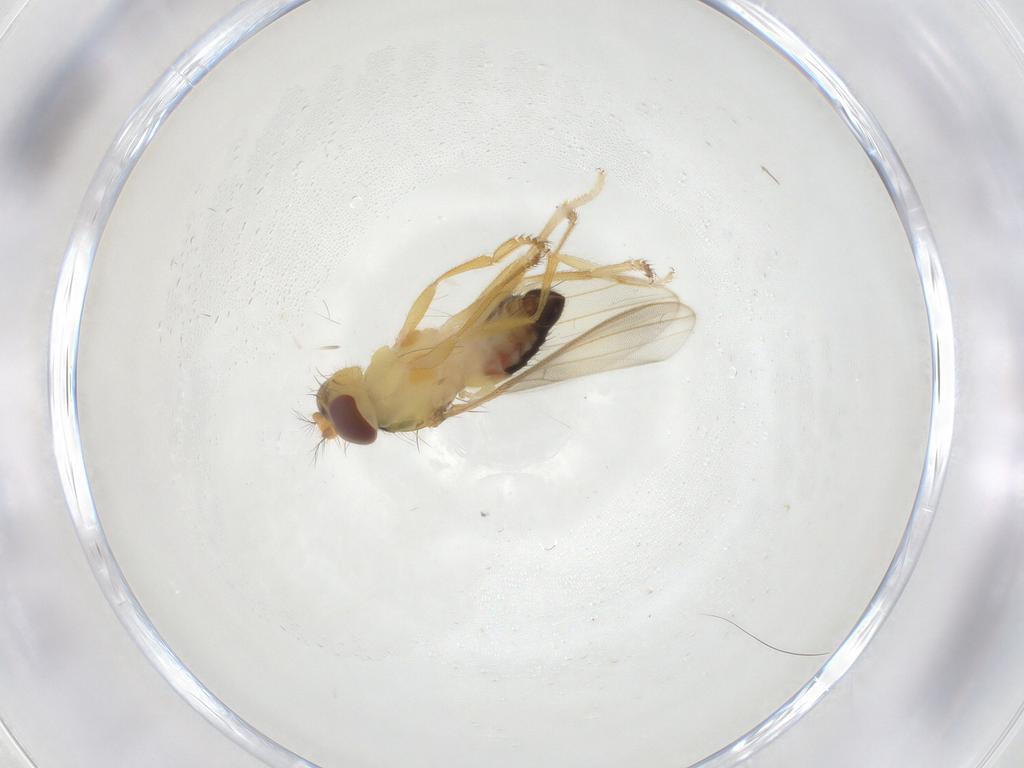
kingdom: Animalia
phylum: Arthropoda
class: Insecta
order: Diptera
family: Periscelididae
